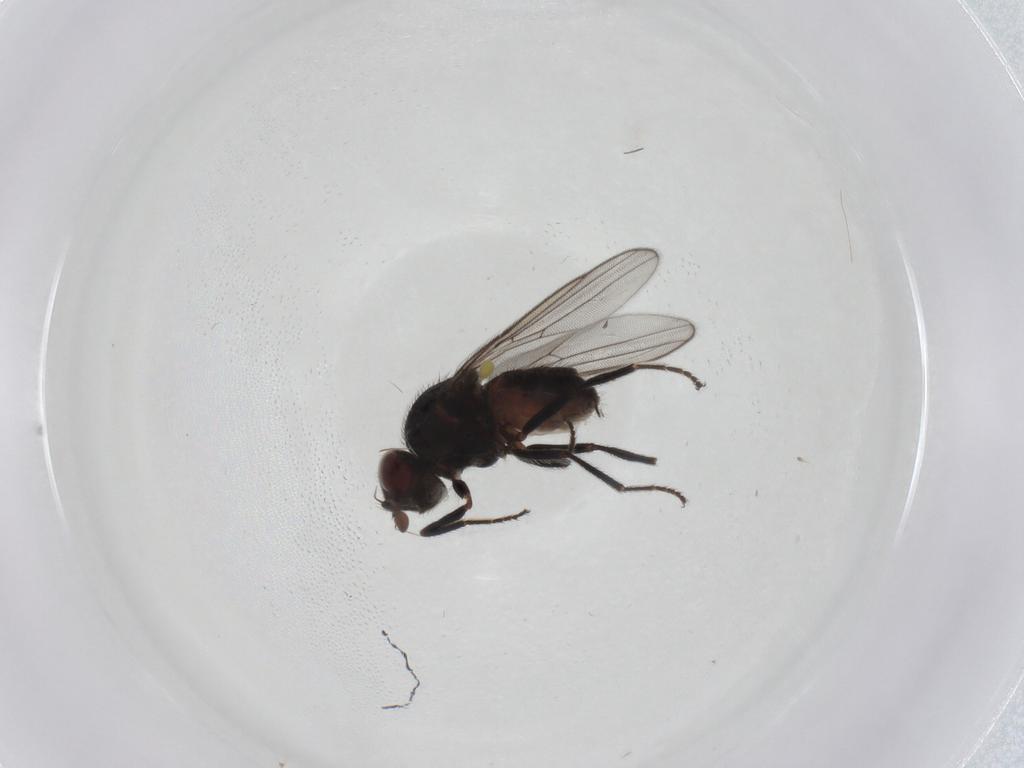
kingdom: Animalia
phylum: Arthropoda
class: Insecta
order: Diptera
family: Chloropidae
